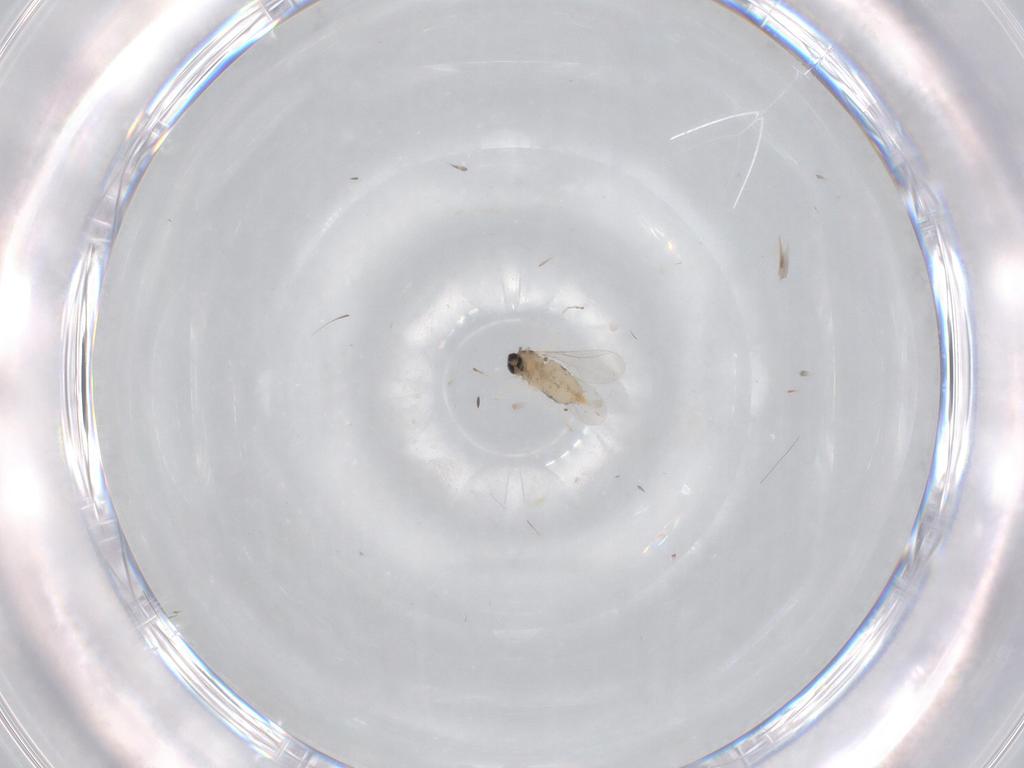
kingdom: Animalia
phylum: Arthropoda
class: Insecta
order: Diptera
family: Cecidomyiidae
